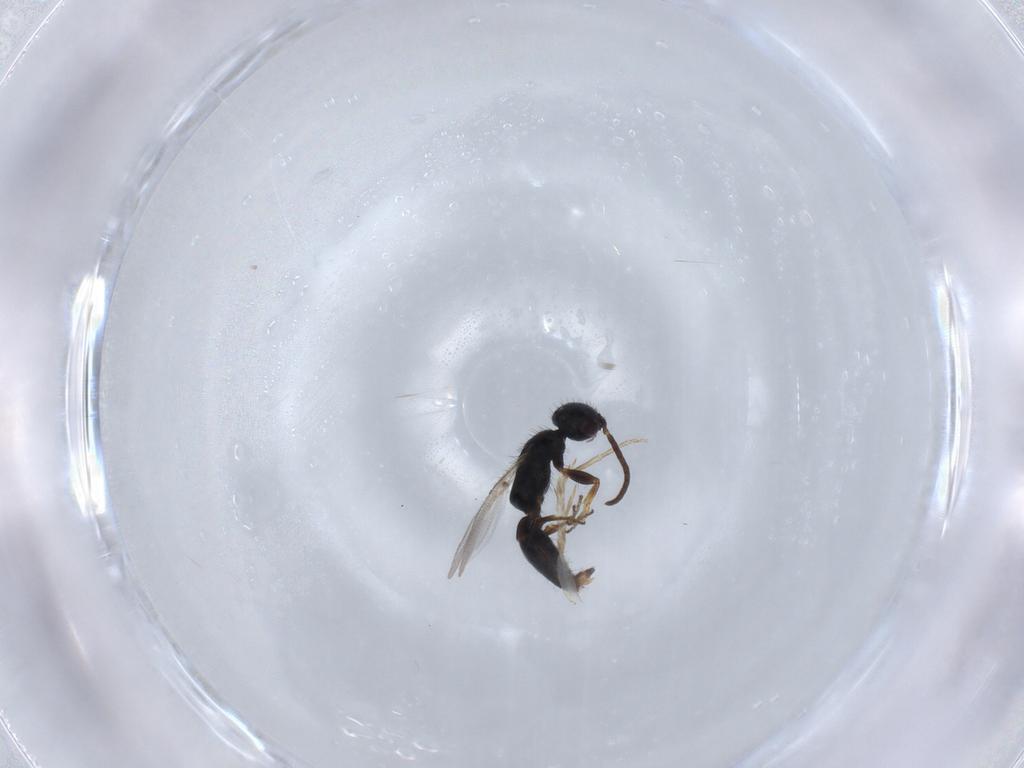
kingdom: Animalia
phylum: Arthropoda
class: Insecta
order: Hymenoptera
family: Bethylidae
